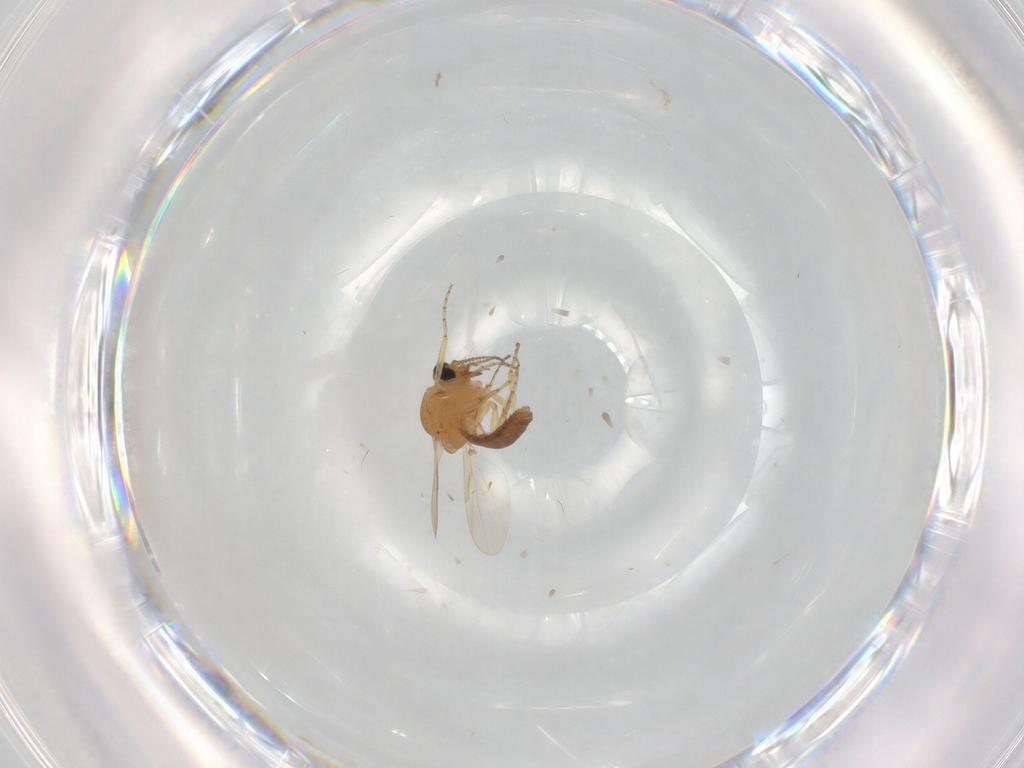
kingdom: Animalia
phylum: Arthropoda
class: Insecta
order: Diptera
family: Ceratopogonidae
